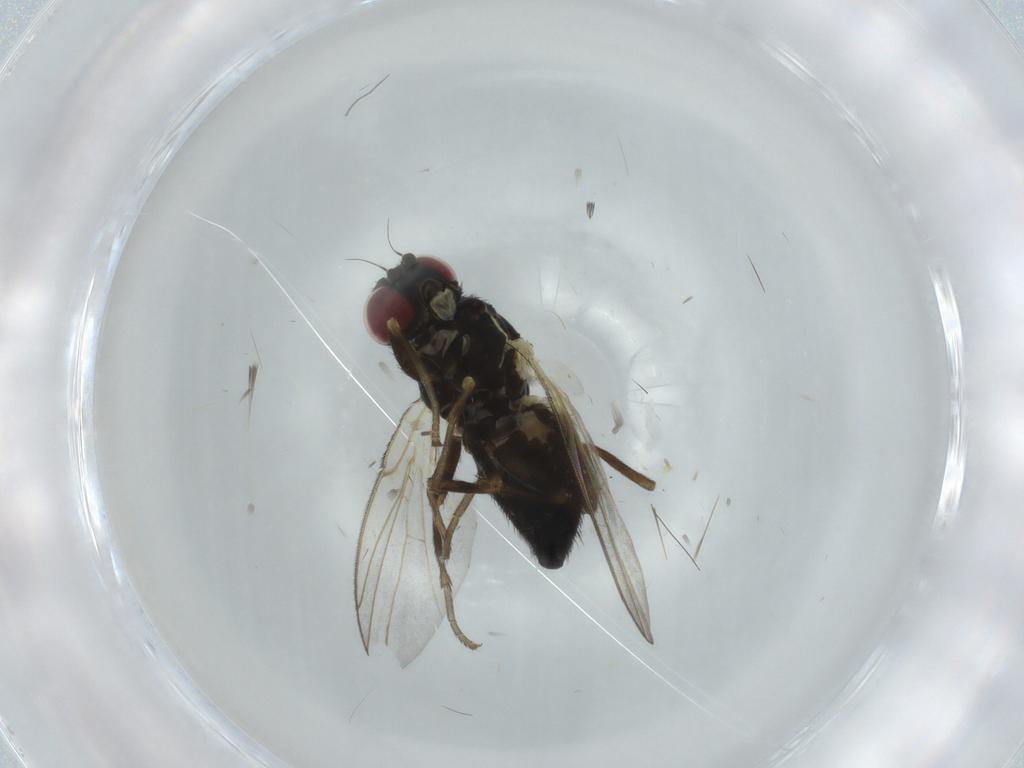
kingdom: Animalia
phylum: Arthropoda
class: Insecta
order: Diptera
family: Agromyzidae
